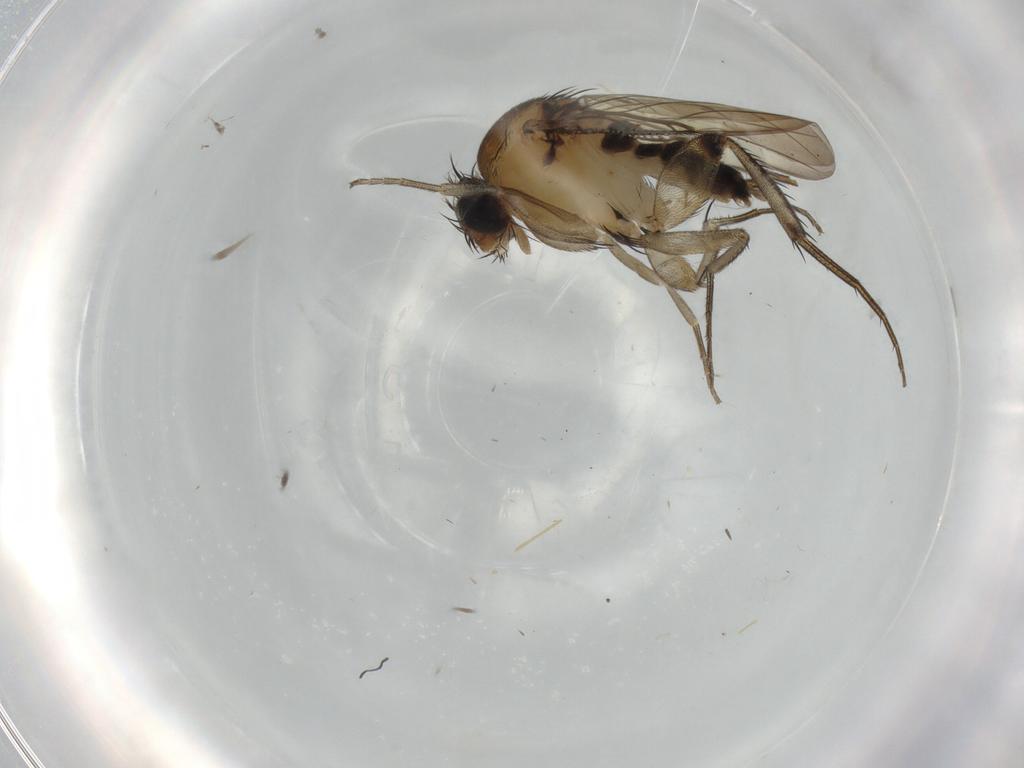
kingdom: Animalia
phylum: Arthropoda
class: Insecta
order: Diptera
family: Phoridae
